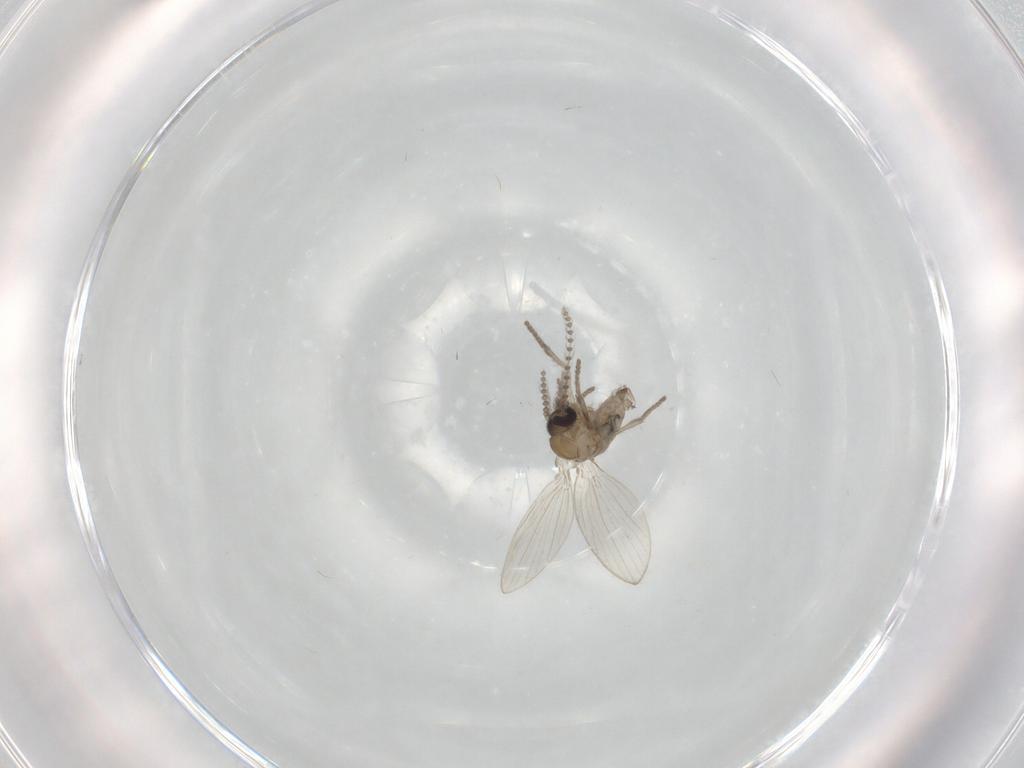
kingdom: Animalia
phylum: Arthropoda
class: Insecta
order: Diptera
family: Psychodidae
